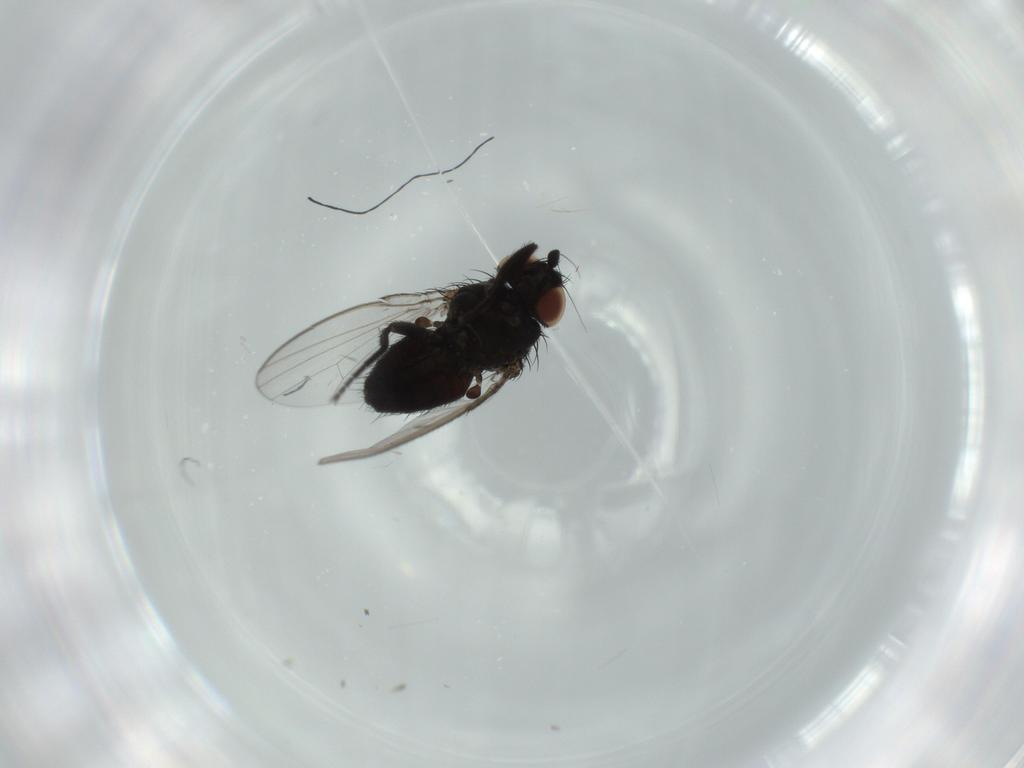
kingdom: Animalia
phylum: Arthropoda
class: Insecta
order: Diptera
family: Milichiidae
